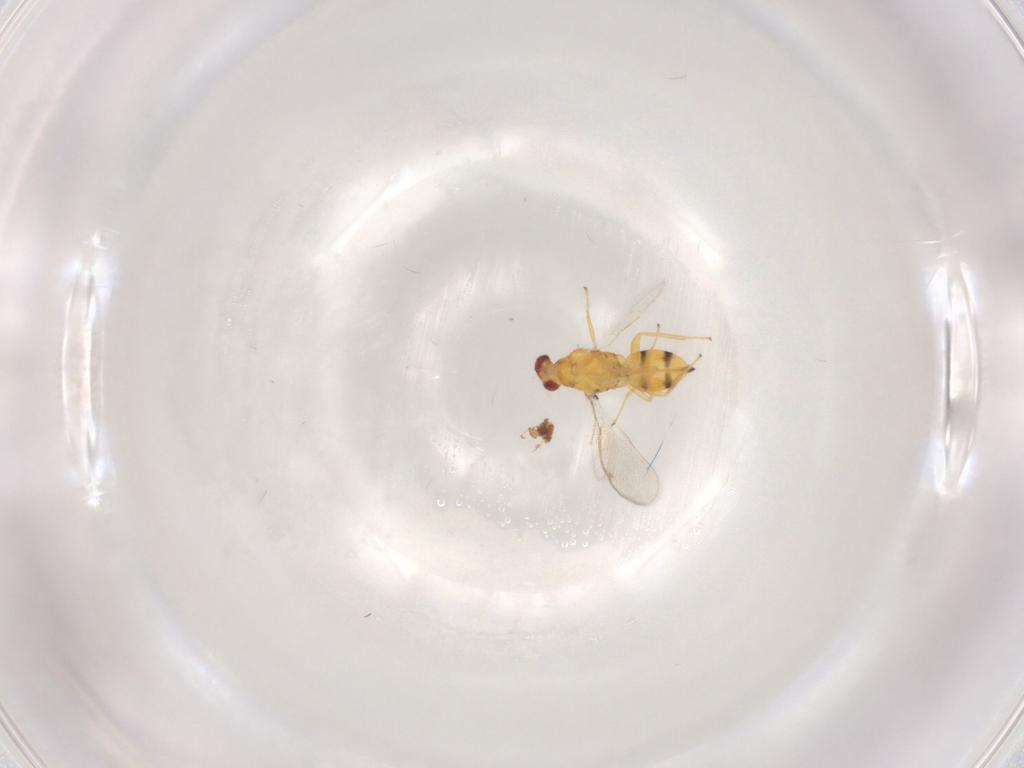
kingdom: Animalia
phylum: Arthropoda
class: Insecta
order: Hymenoptera
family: Eulophidae
